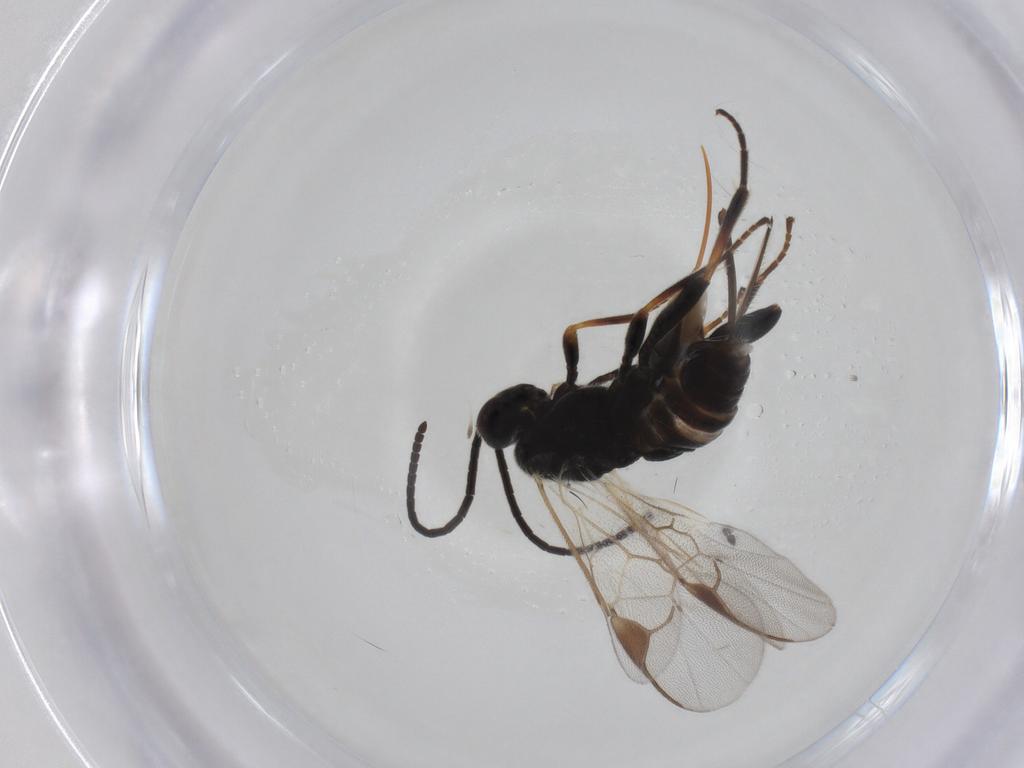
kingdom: Animalia
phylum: Arthropoda
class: Insecta
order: Hymenoptera
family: Braconidae
